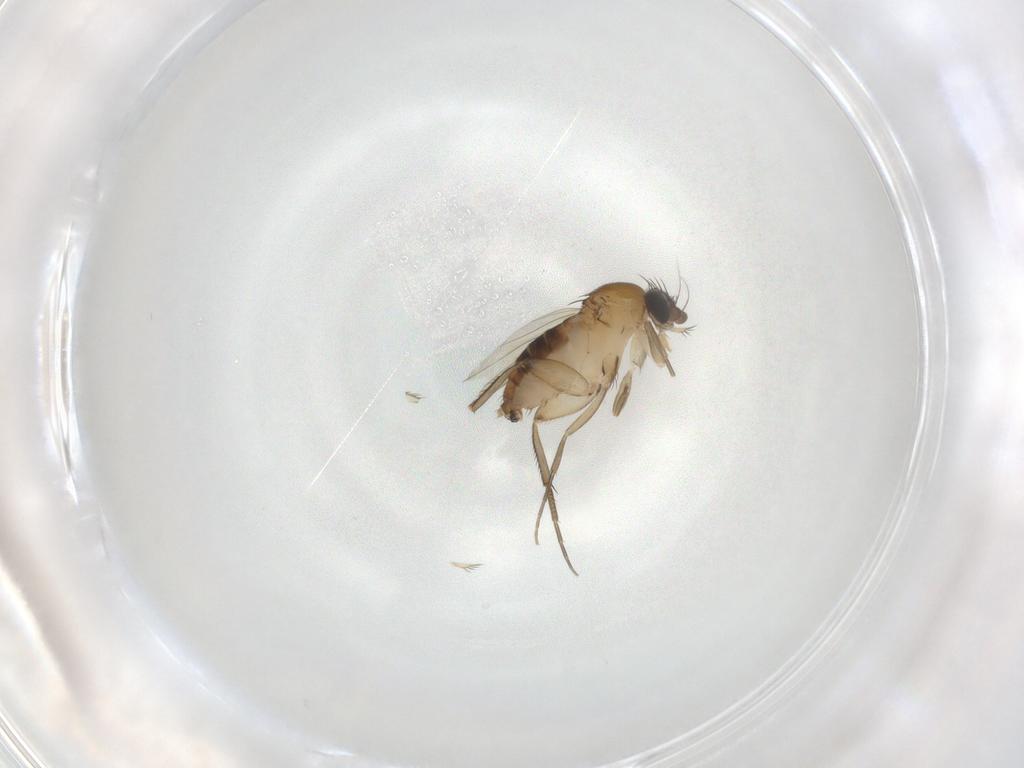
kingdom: Animalia
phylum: Arthropoda
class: Insecta
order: Diptera
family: Phoridae
